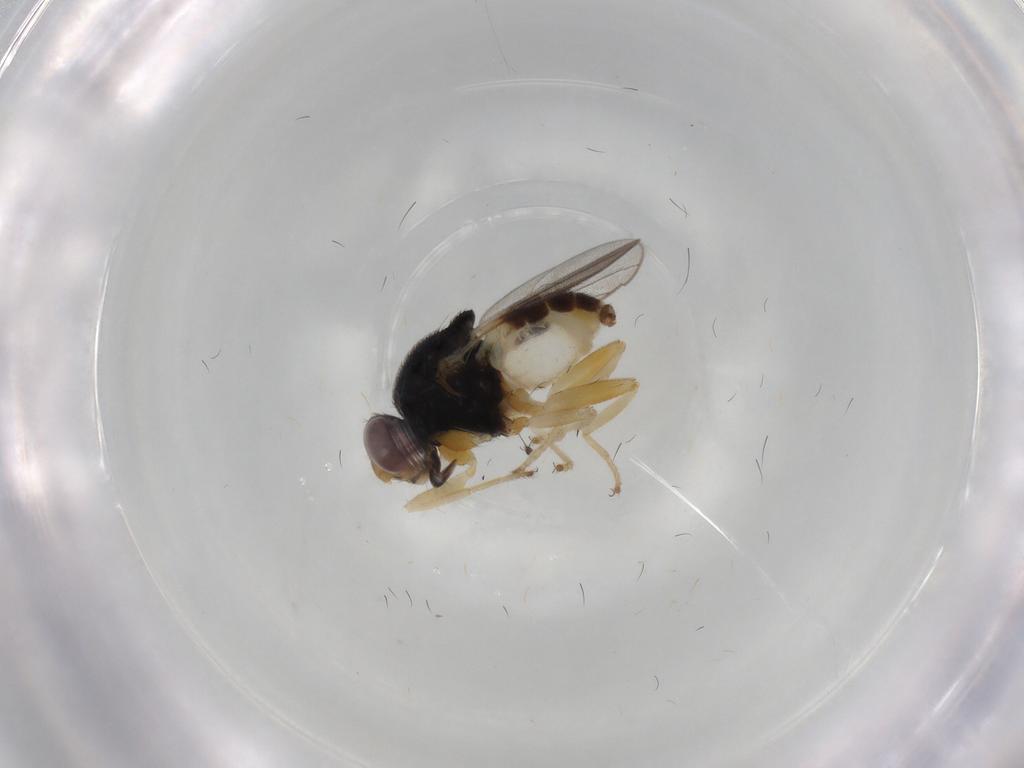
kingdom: Animalia
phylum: Arthropoda
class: Insecta
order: Diptera
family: Chloropidae
